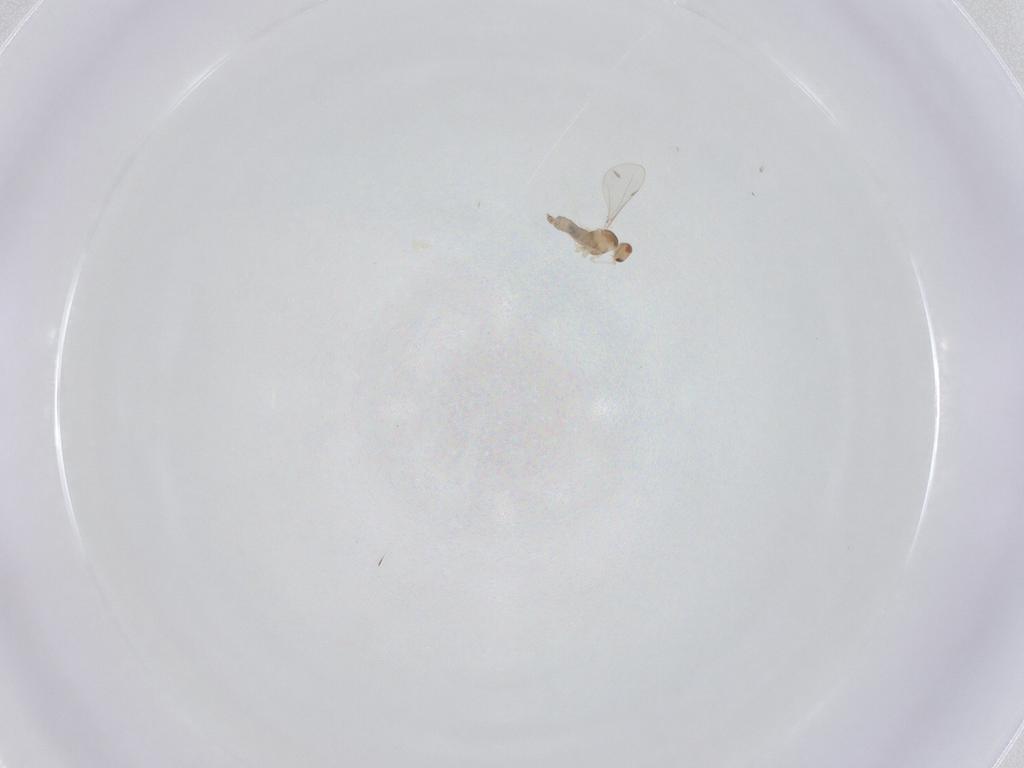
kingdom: Animalia
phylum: Arthropoda
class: Insecta
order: Diptera
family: Cecidomyiidae
